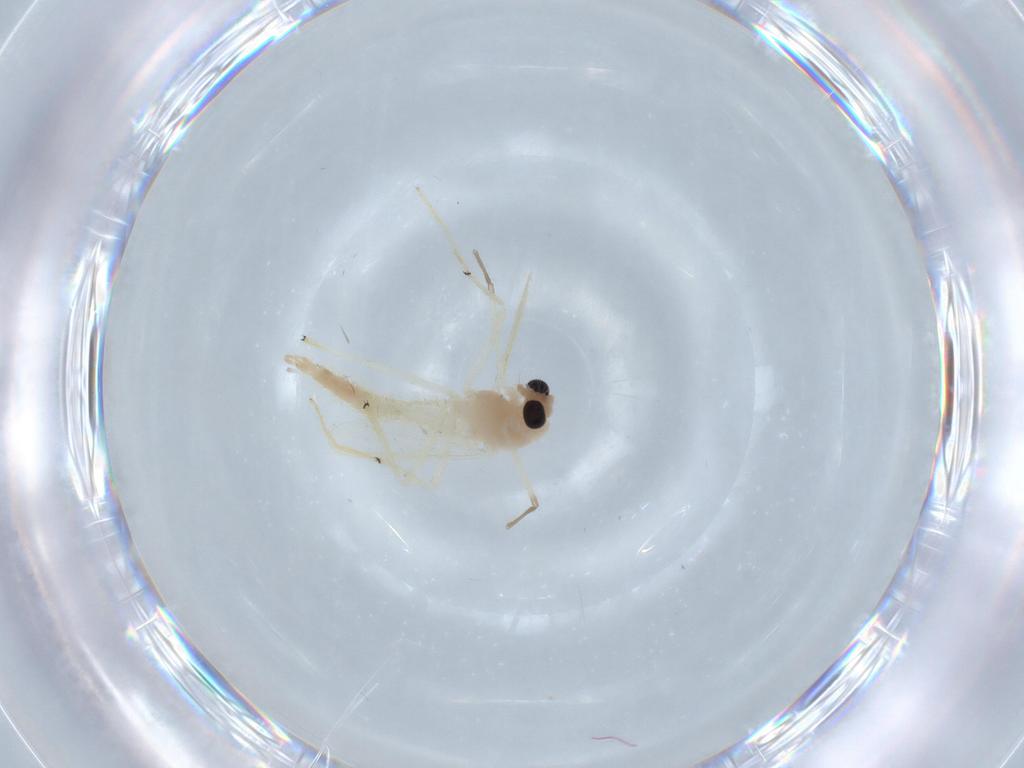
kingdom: Animalia
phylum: Arthropoda
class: Insecta
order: Diptera
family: Chironomidae
